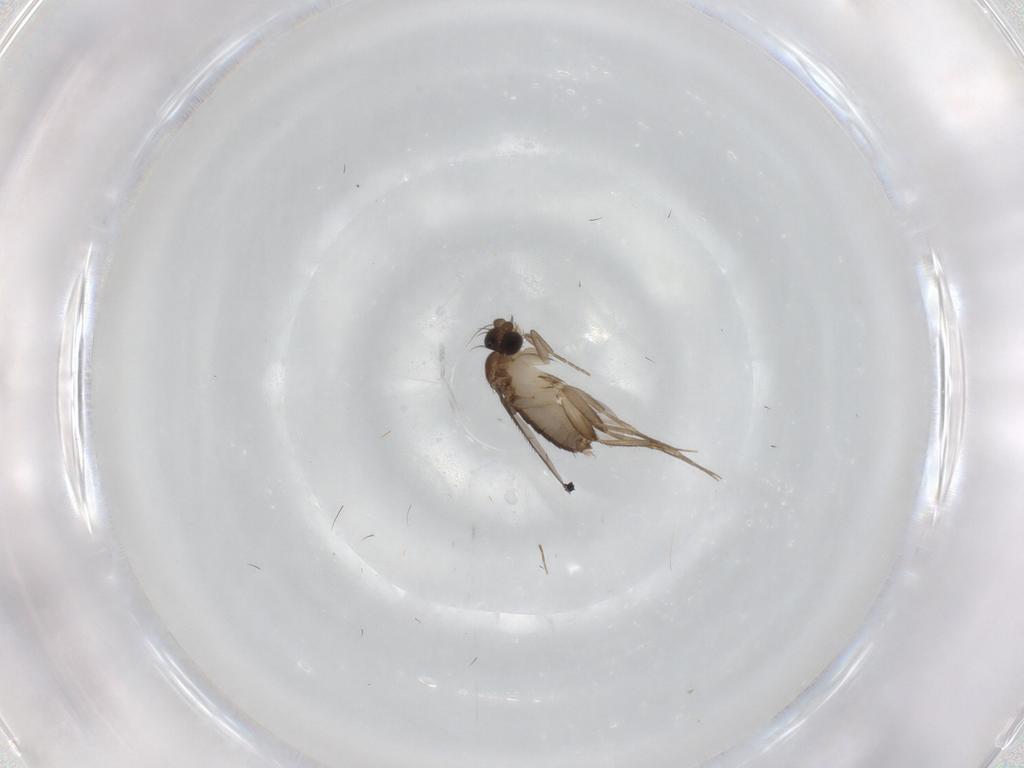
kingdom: Animalia
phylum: Arthropoda
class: Insecta
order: Diptera
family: Phoridae
